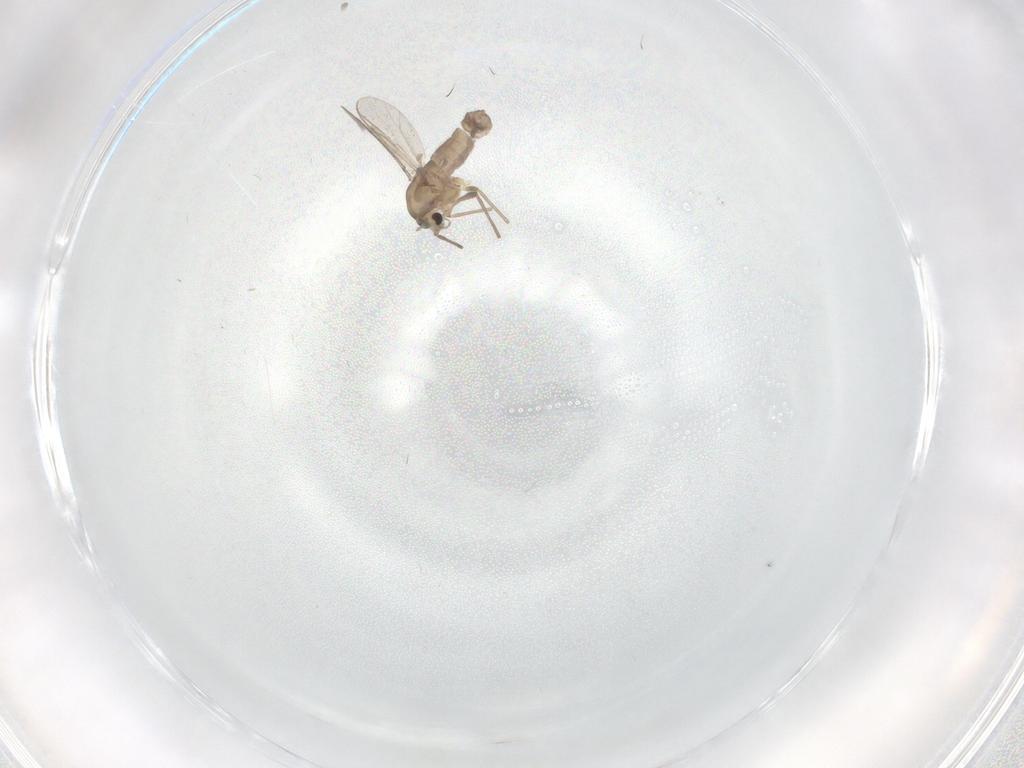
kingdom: Animalia
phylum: Arthropoda
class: Insecta
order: Diptera
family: Chironomidae
